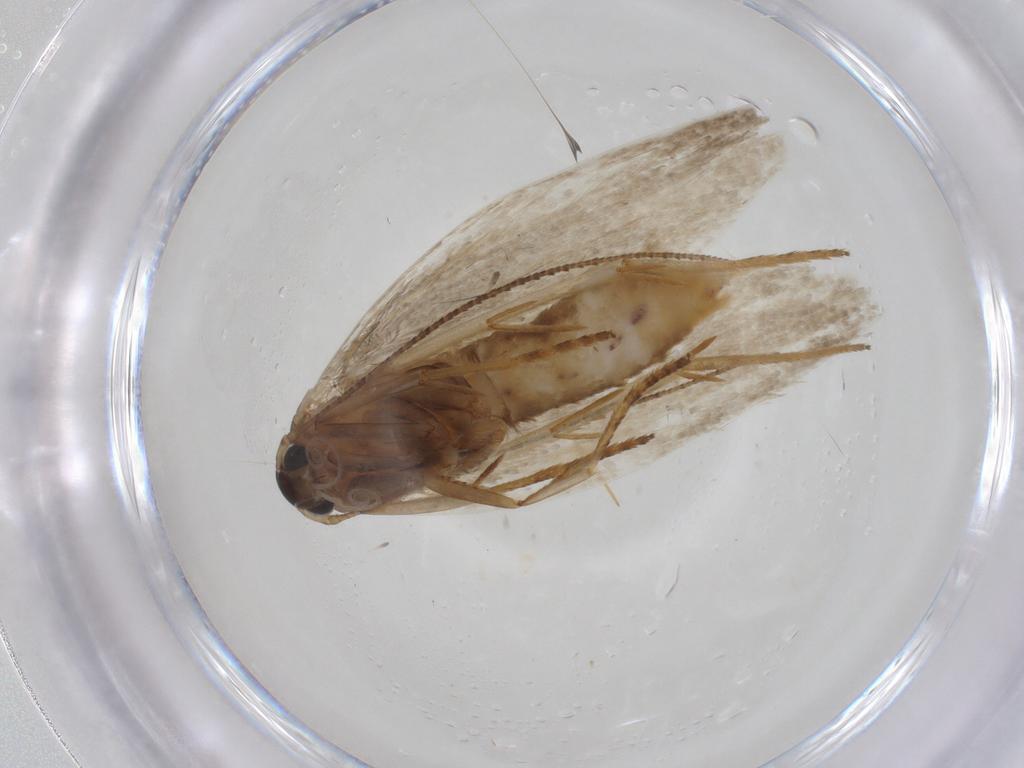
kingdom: Animalia
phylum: Arthropoda
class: Insecta
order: Lepidoptera
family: Erebidae
